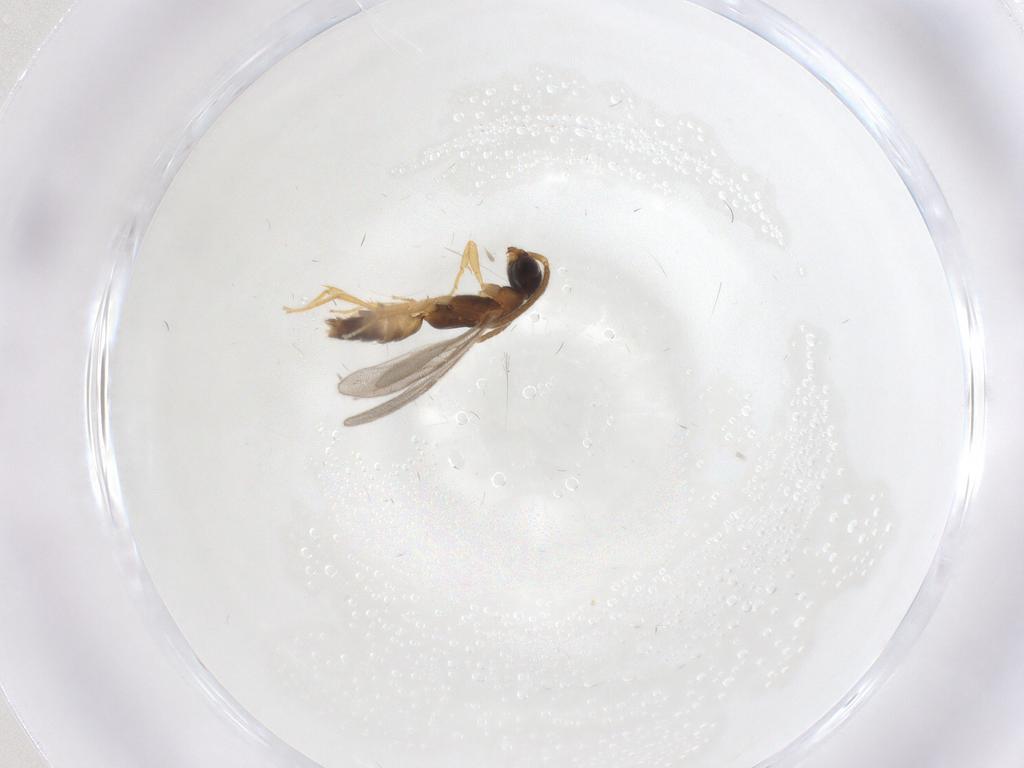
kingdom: Animalia
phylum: Arthropoda
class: Insecta
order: Hymenoptera
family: Bethylidae
